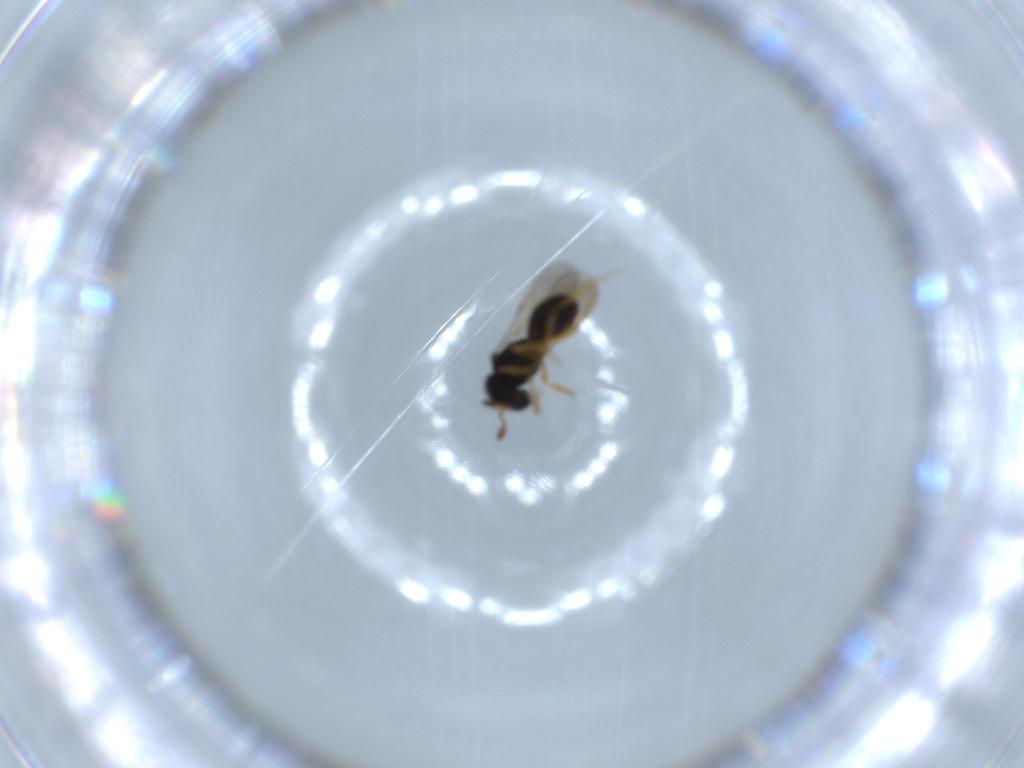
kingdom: Animalia
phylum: Arthropoda
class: Insecta
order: Hymenoptera
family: Scelionidae
